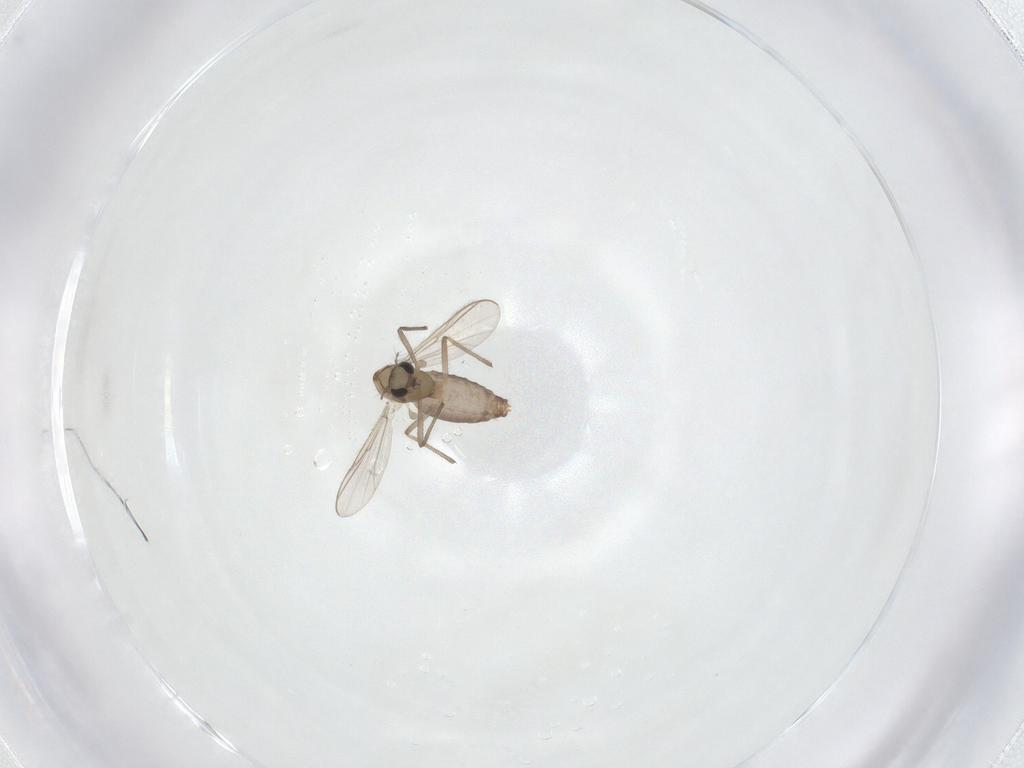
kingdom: Animalia
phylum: Arthropoda
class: Insecta
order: Diptera
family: Chironomidae
